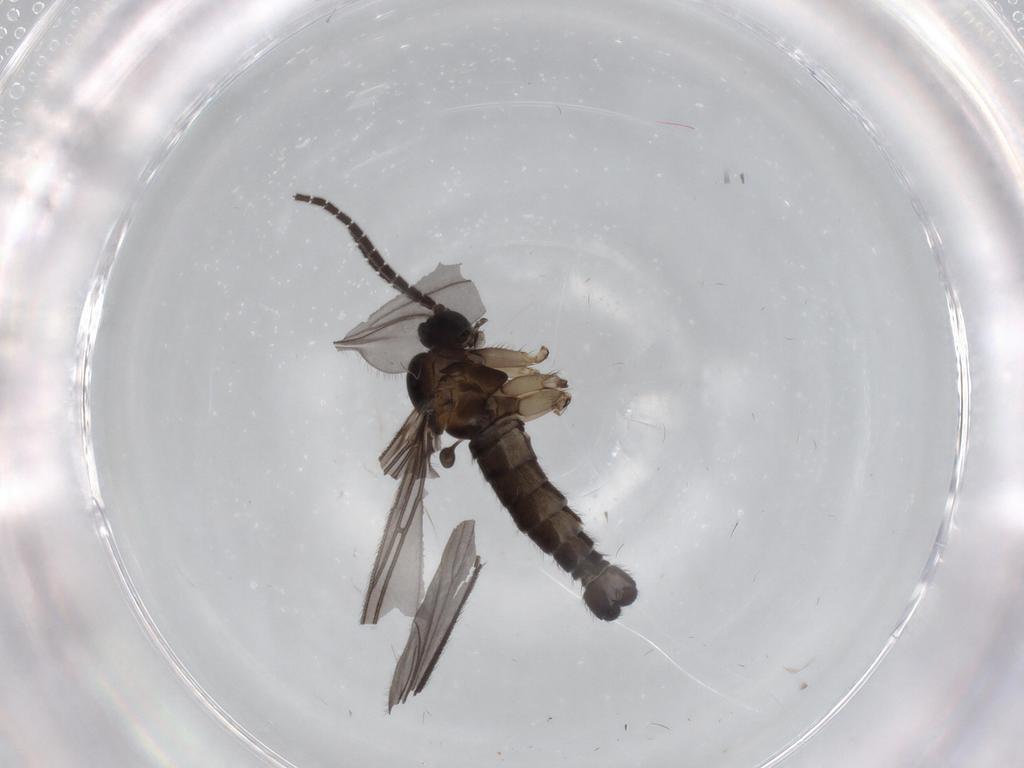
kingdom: Animalia
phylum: Arthropoda
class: Insecta
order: Diptera
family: Sciaridae
